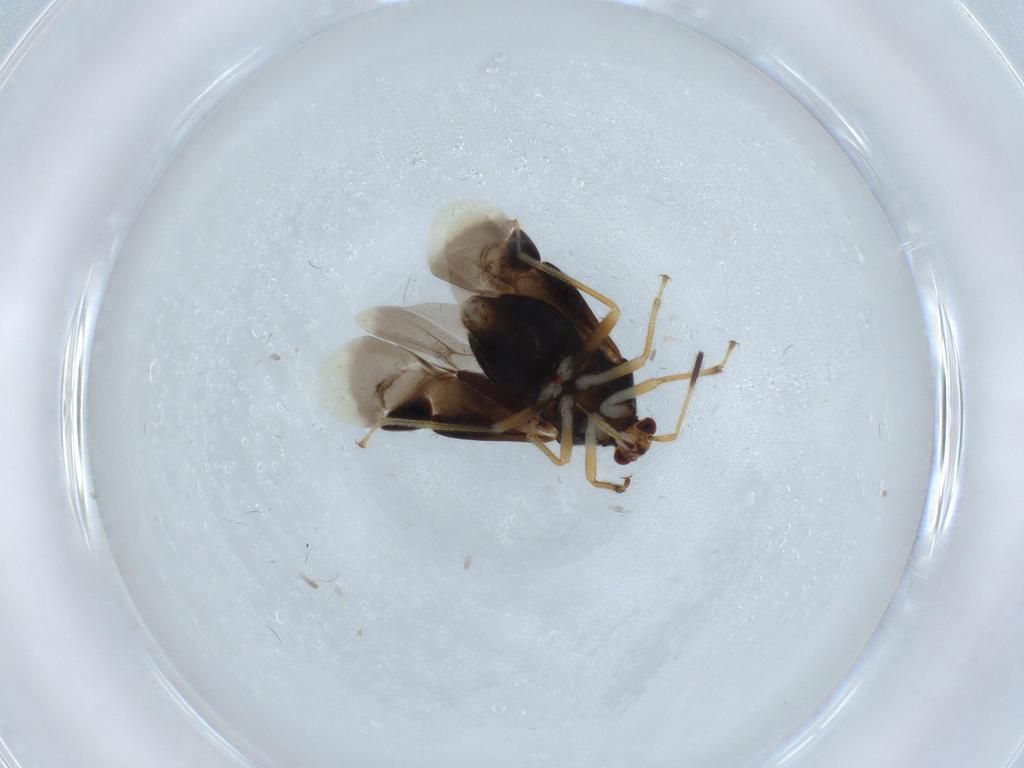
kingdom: Animalia
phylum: Arthropoda
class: Insecta
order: Hemiptera
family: Miridae
